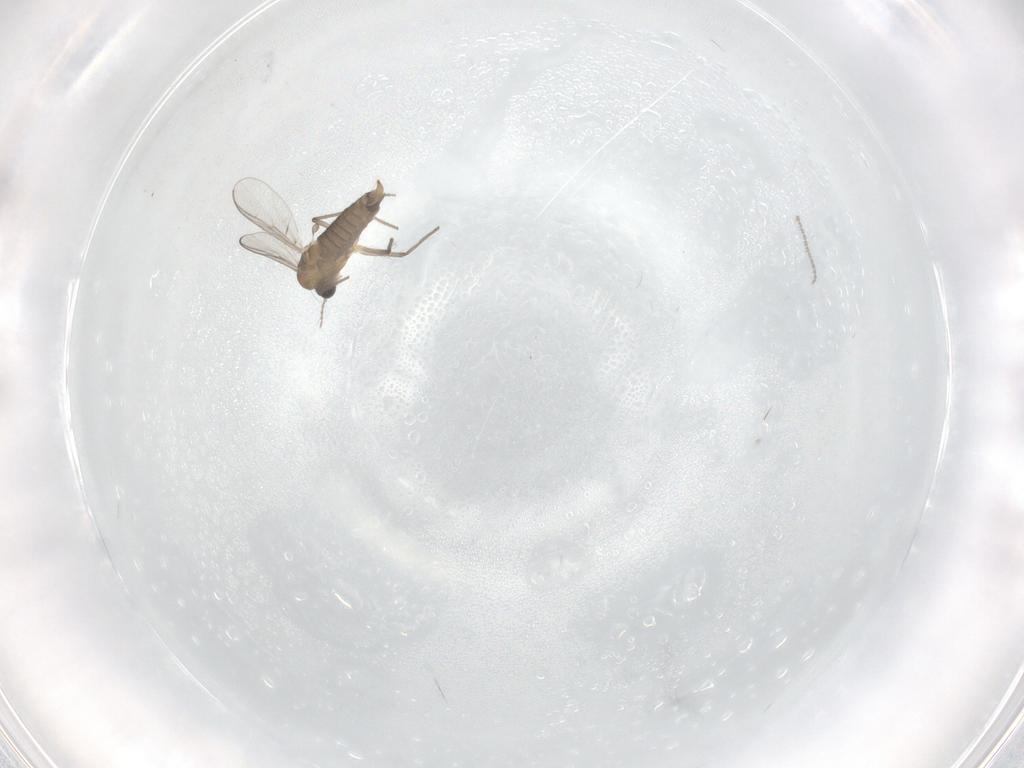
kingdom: Animalia
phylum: Arthropoda
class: Insecta
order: Diptera
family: Cecidomyiidae
